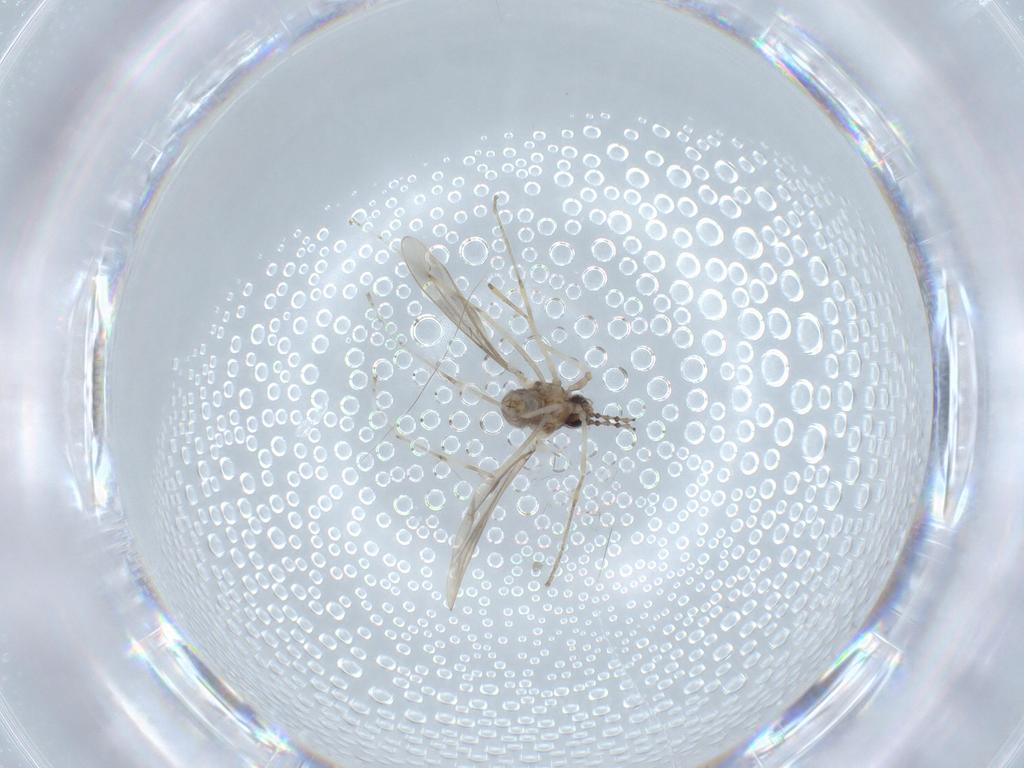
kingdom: Animalia
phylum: Arthropoda
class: Insecta
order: Diptera
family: Cecidomyiidae
